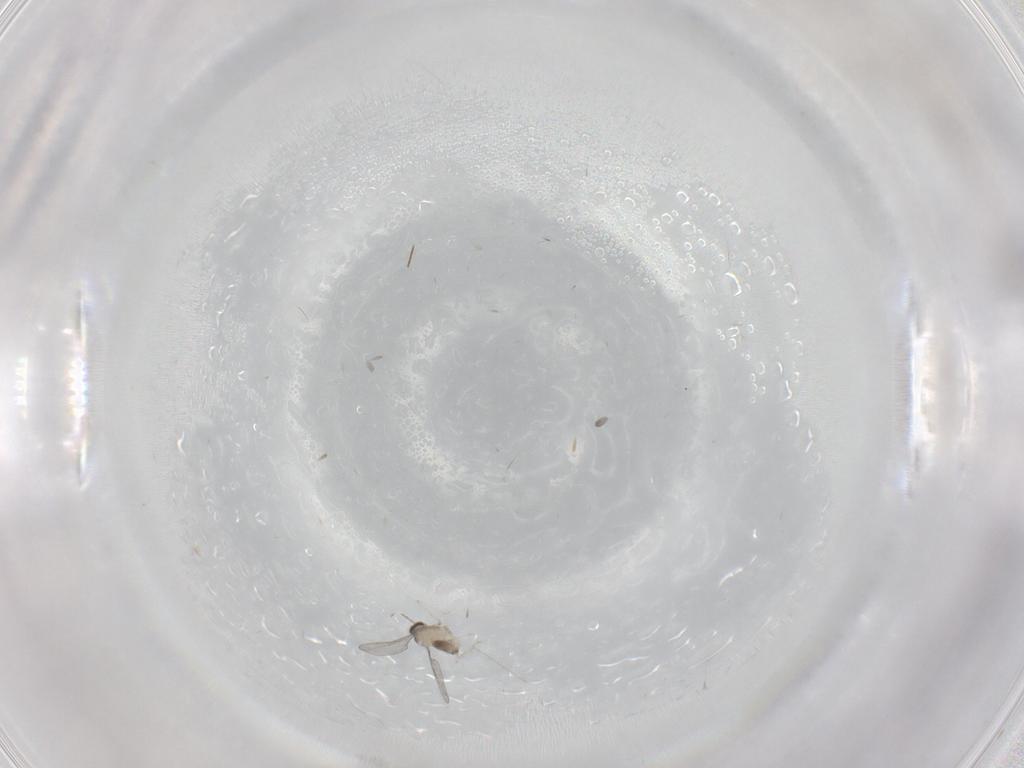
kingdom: Animalia
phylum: Arthropoda
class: Insecta
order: Diptera
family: Cecidomyiidae
